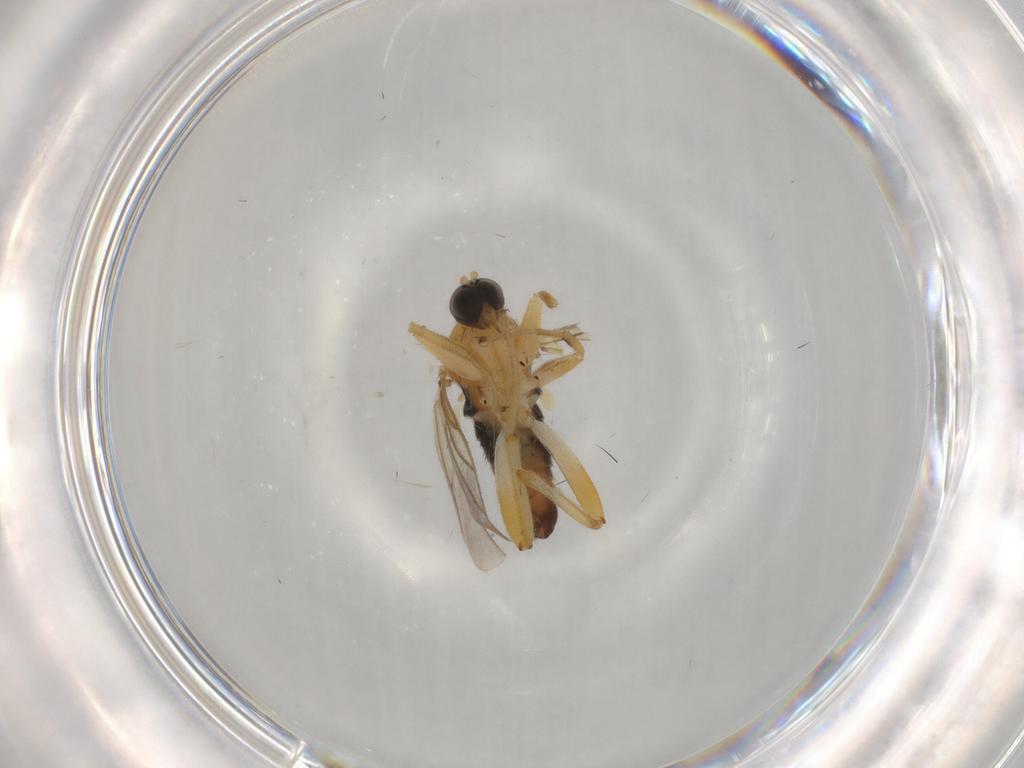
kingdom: Animalia
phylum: Arthropoda
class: Insecta
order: Diptera
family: Psychodidae
